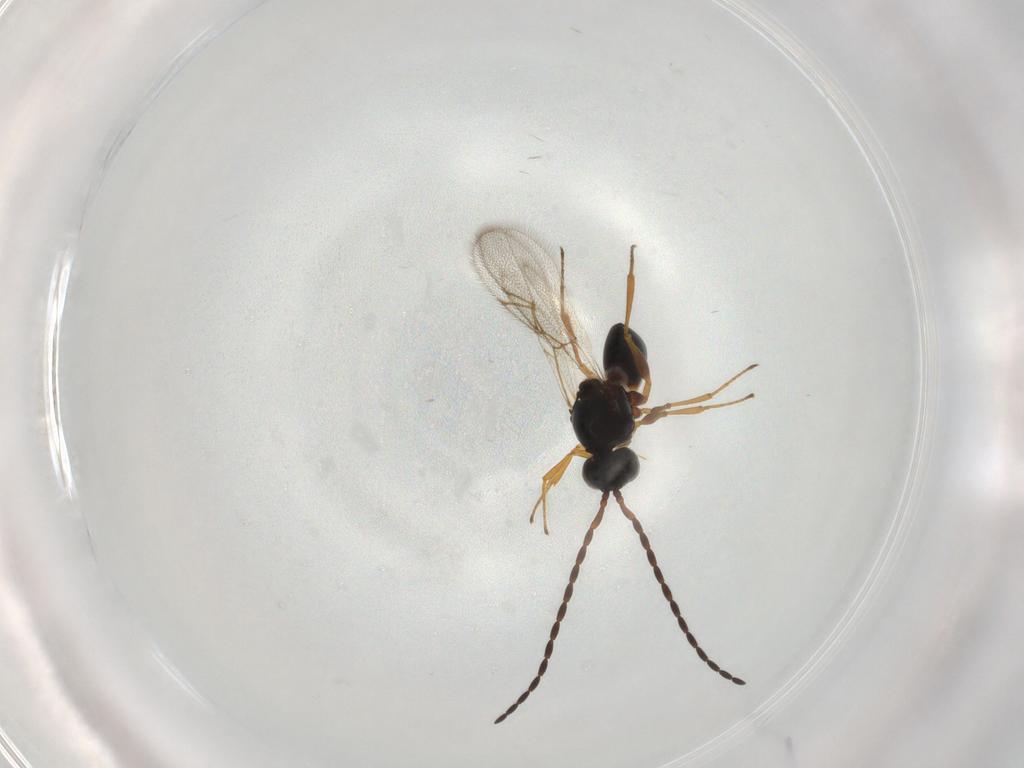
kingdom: Animalia
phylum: Arthropoda
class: Insecta
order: Hymenoptera
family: Figitidae
